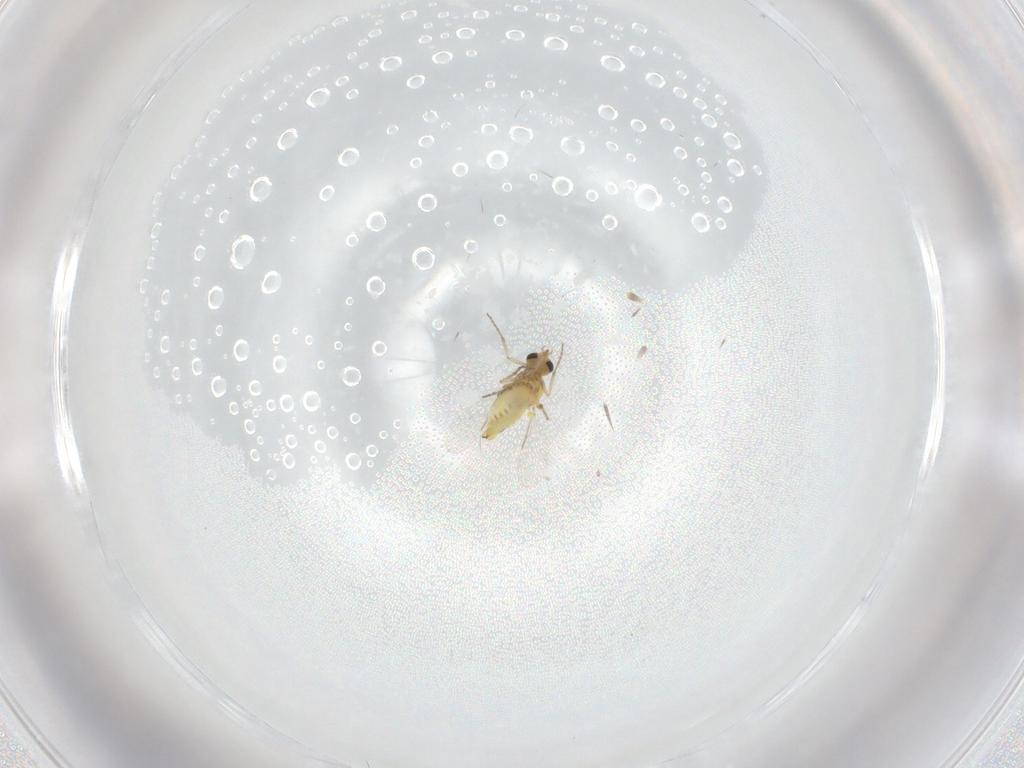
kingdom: Animalia
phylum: Arthropoda
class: Insecta
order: Diptera
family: Ceratopogonidae
